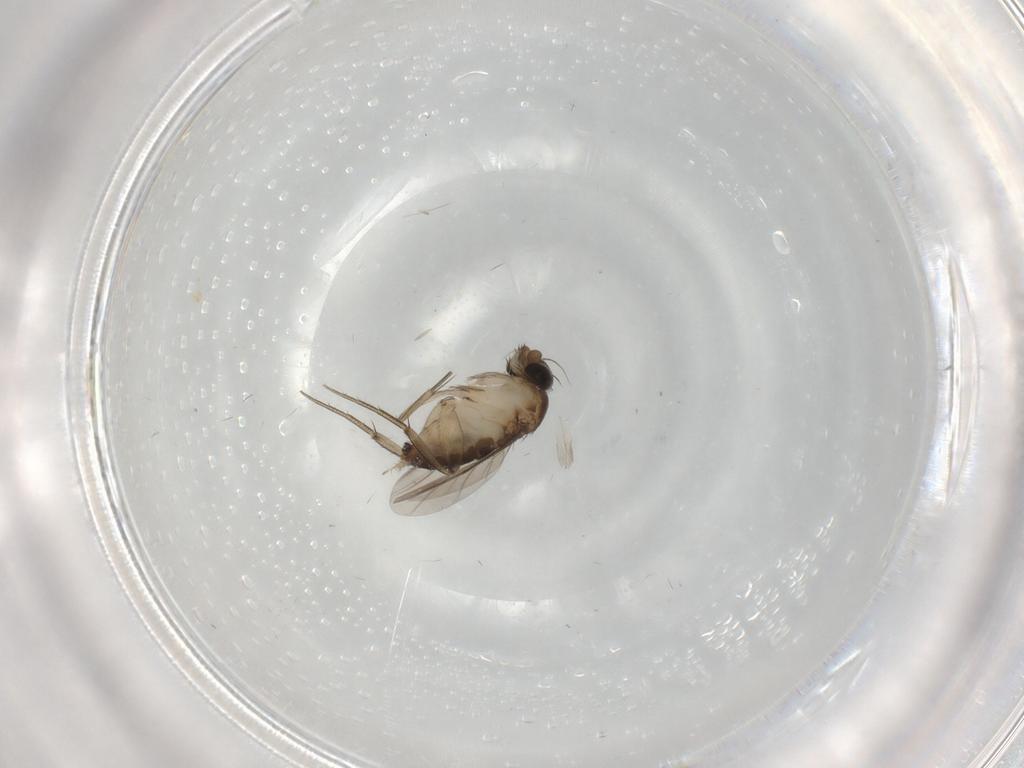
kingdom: Animalia
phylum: Arthropoda
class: Insecta
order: Diptera
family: Phoridae
